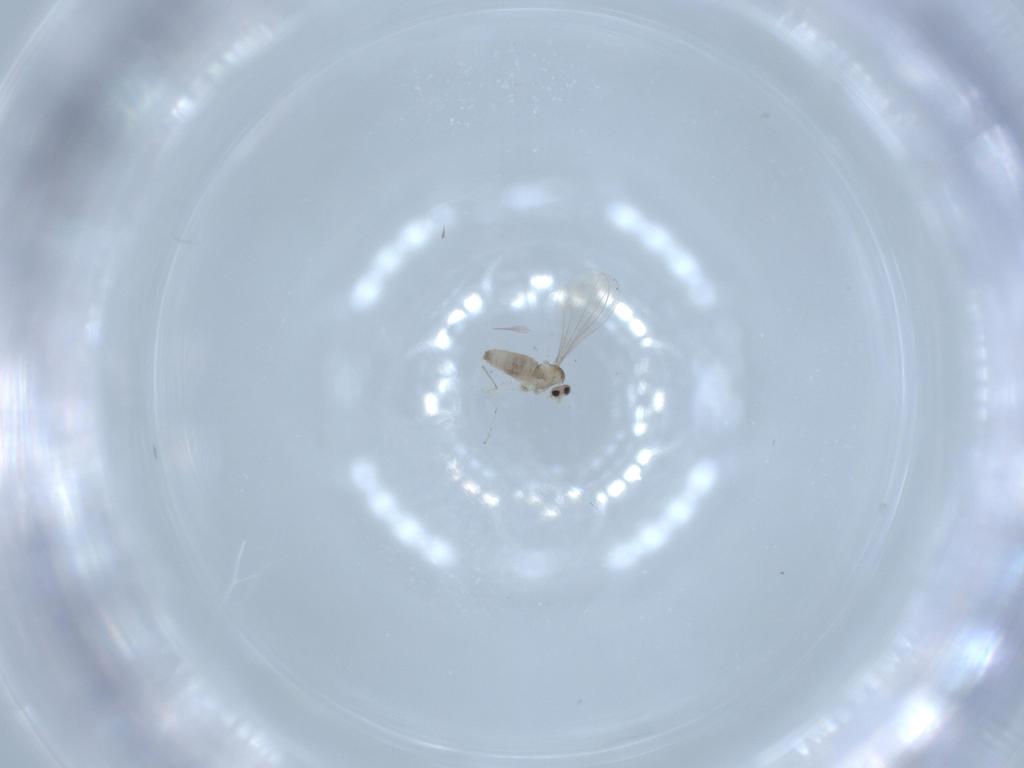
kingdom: Animalia
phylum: Arthropoda
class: Insecta
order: Diptera
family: Cecidomyiidae
